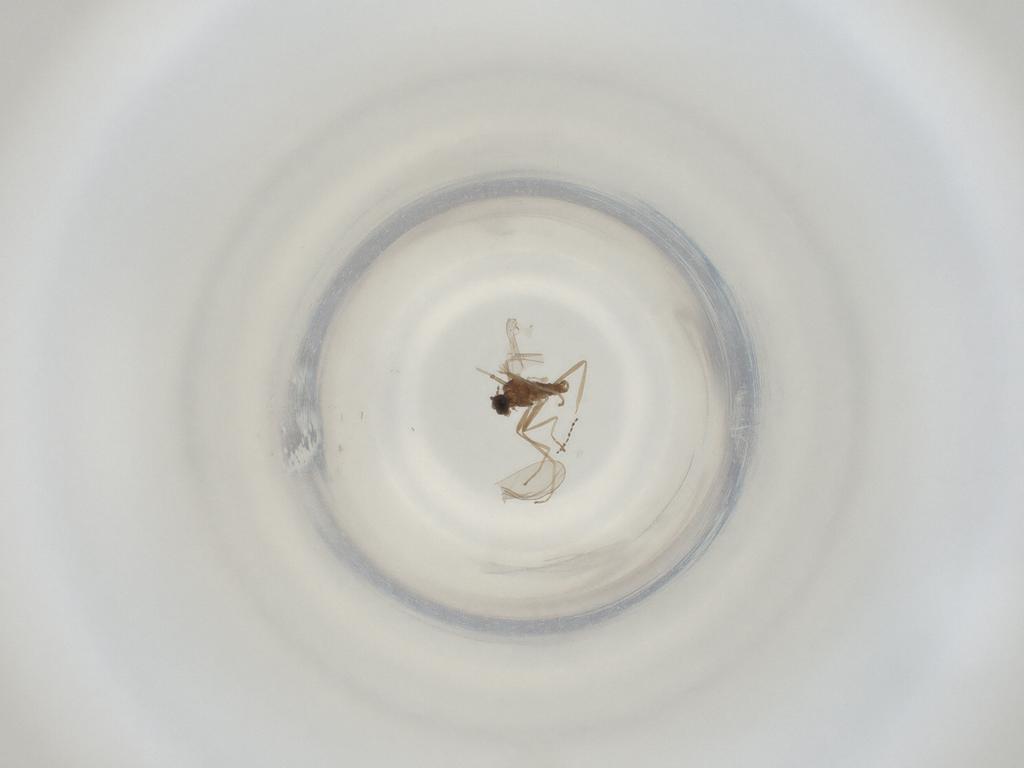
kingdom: Animalia
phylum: Arthropoda
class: Insecta
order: Diptera
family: Cecidomyiidae
